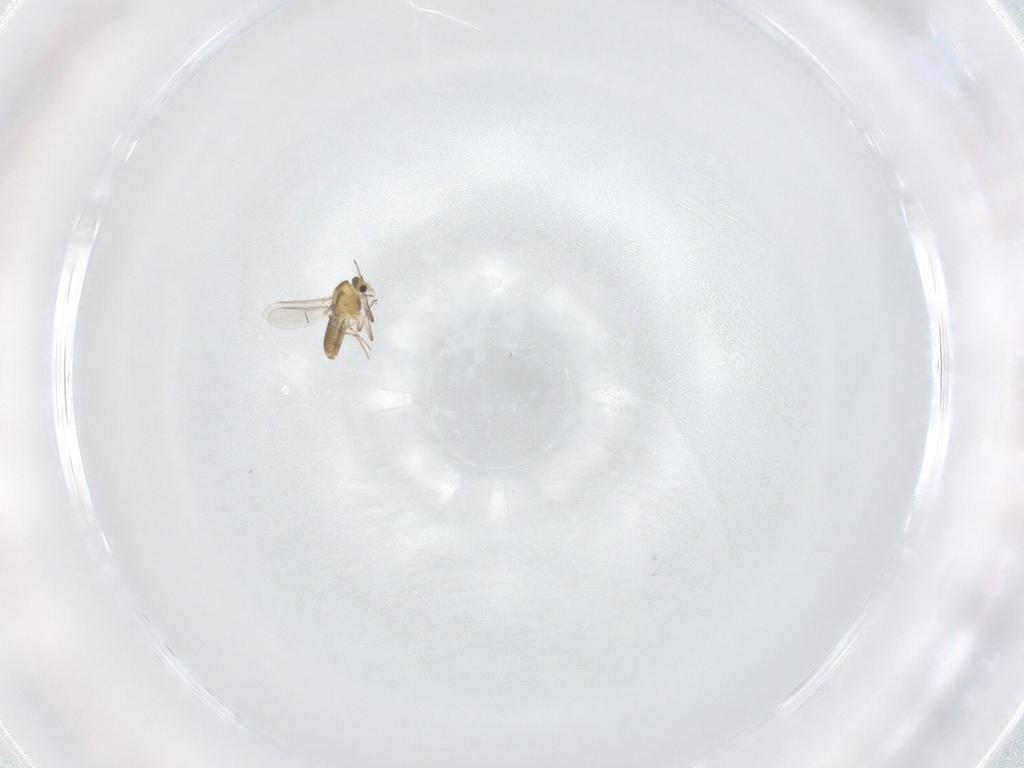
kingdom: Animalia
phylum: Arthropoda
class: Insecta
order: Diptera
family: Chironomidae
